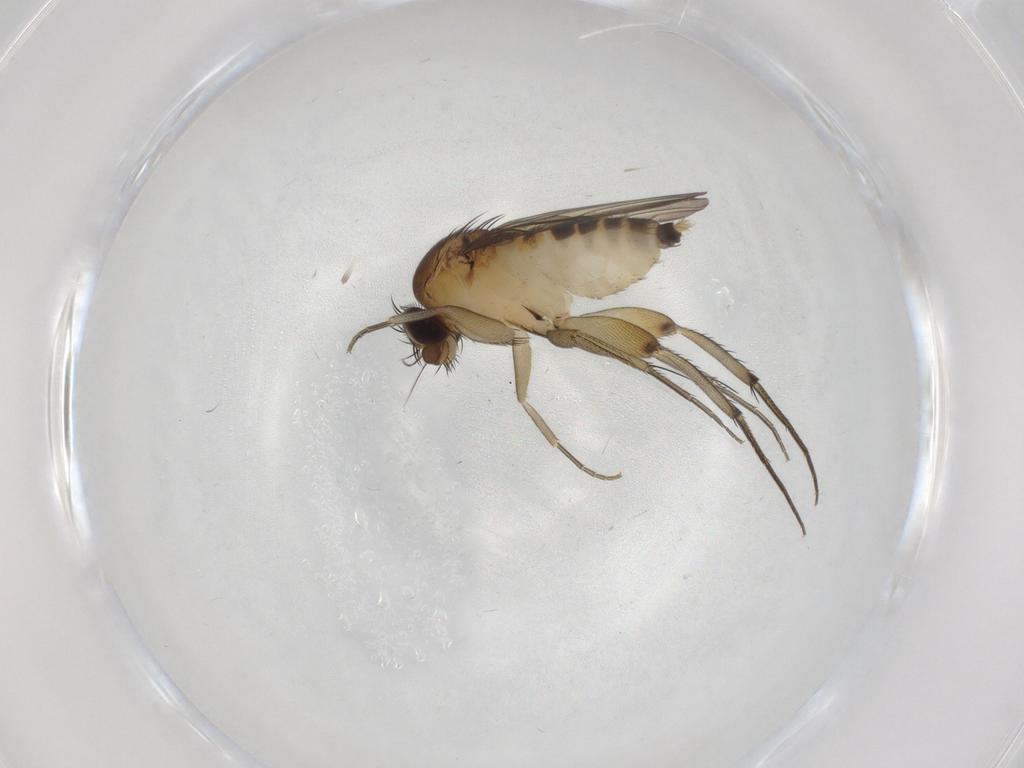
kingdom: Animalia
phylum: Arthropoda
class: Insecta
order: Diptera
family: Phoridae
